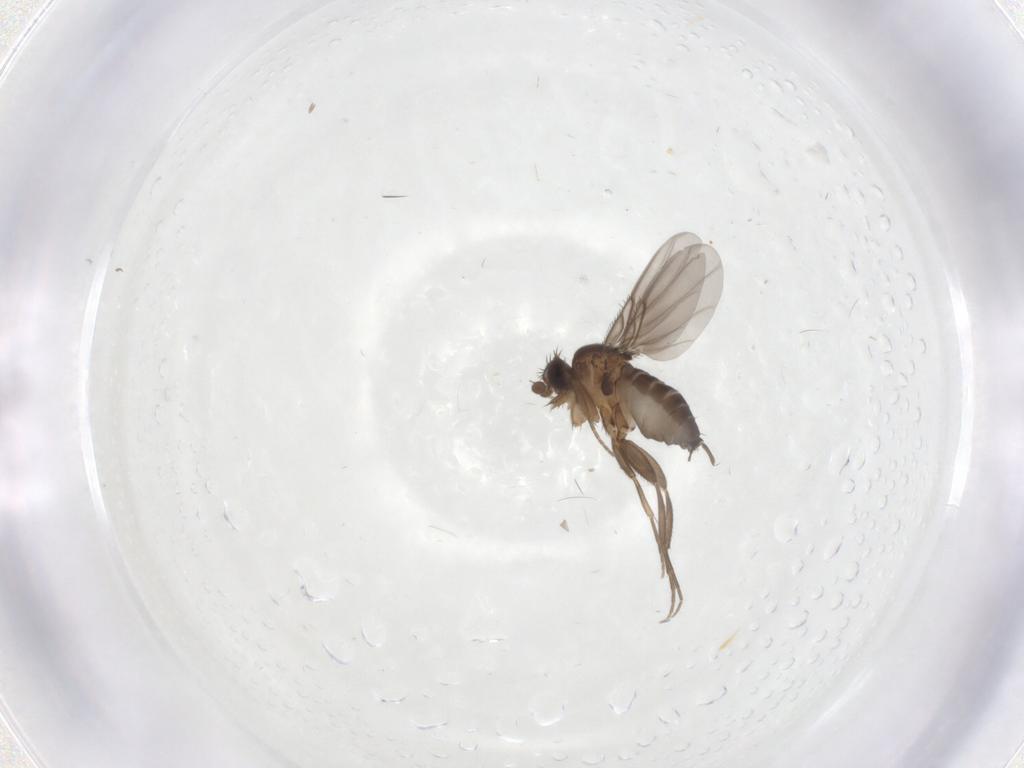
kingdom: Animalia
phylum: Arthropoda
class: Insecta
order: Diptera
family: Phoridae
